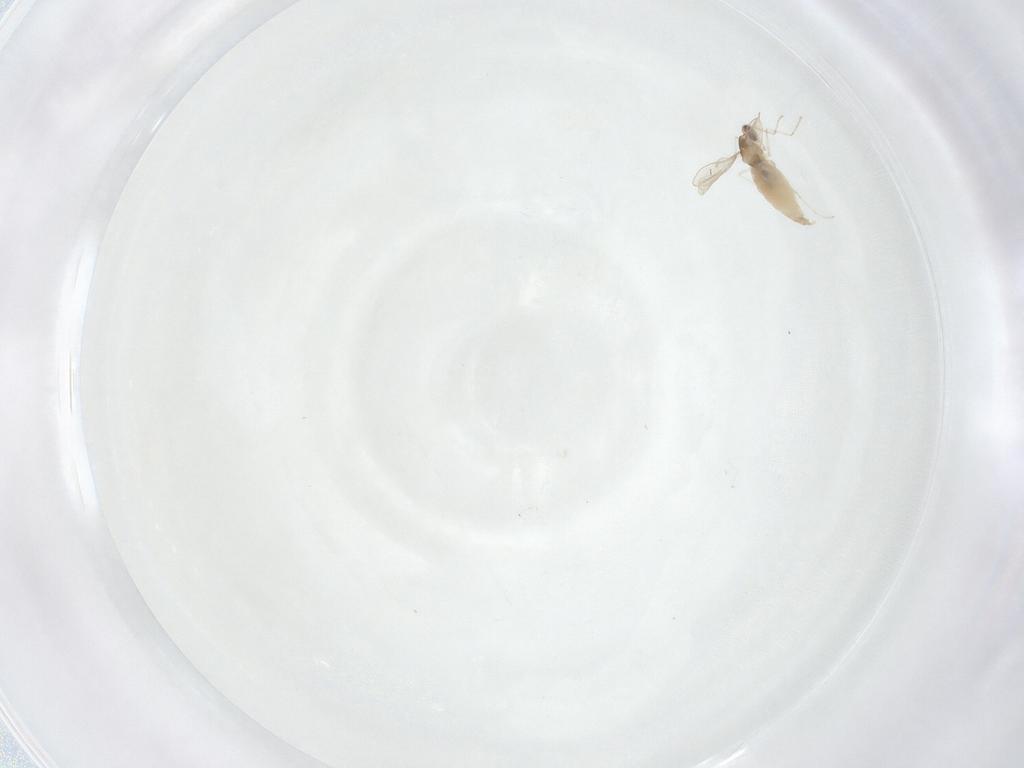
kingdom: Animalia
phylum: Arthropoda
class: Insecta
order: Diptera
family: Cecidomyiidae
